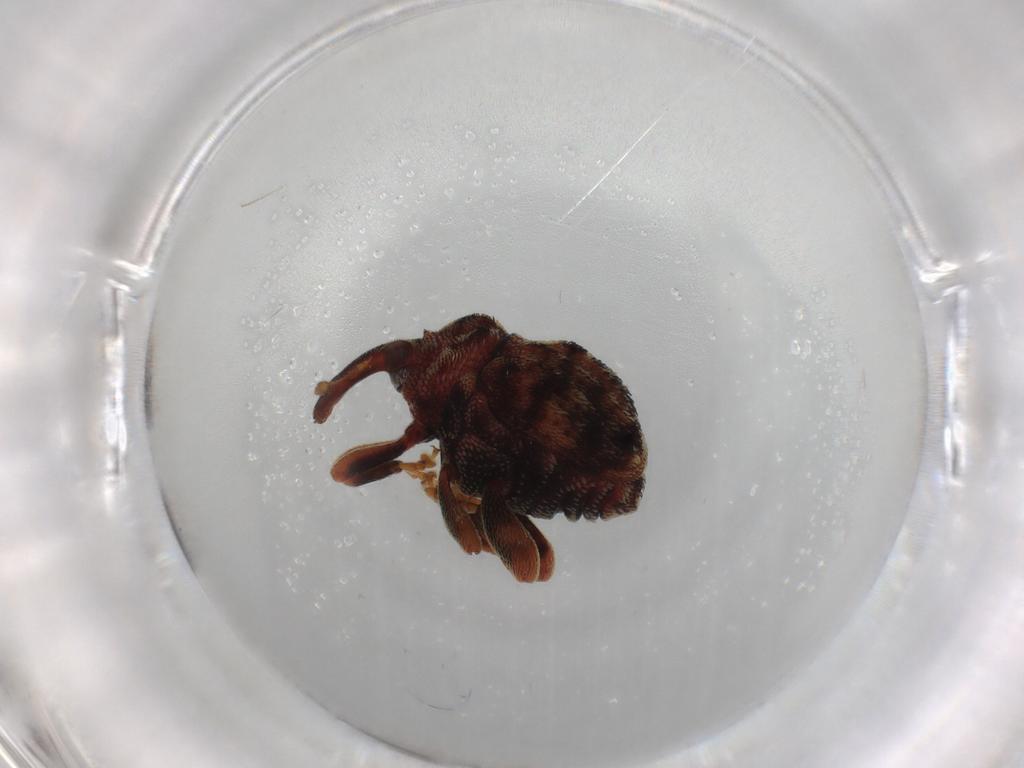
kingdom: Animalia
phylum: Arthropoda
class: Insecta
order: Coleoptera
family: Curculionidae
